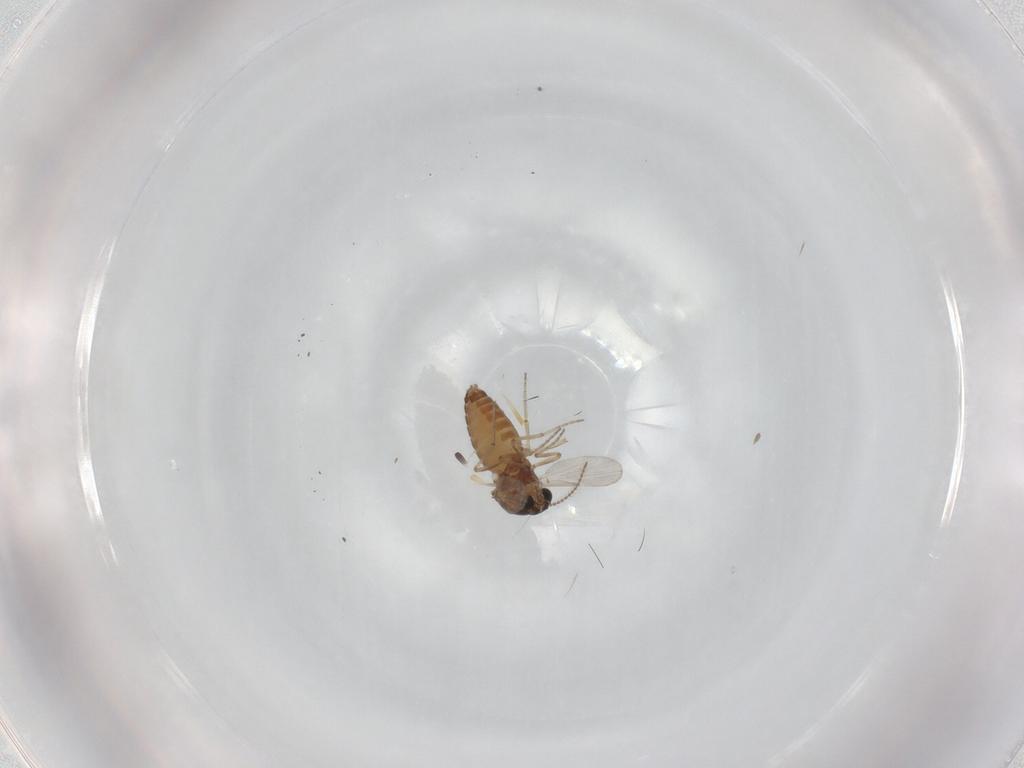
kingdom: Animalia
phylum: Arthropoda
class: Insecta
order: Diptera
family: Ceratopogonidae
